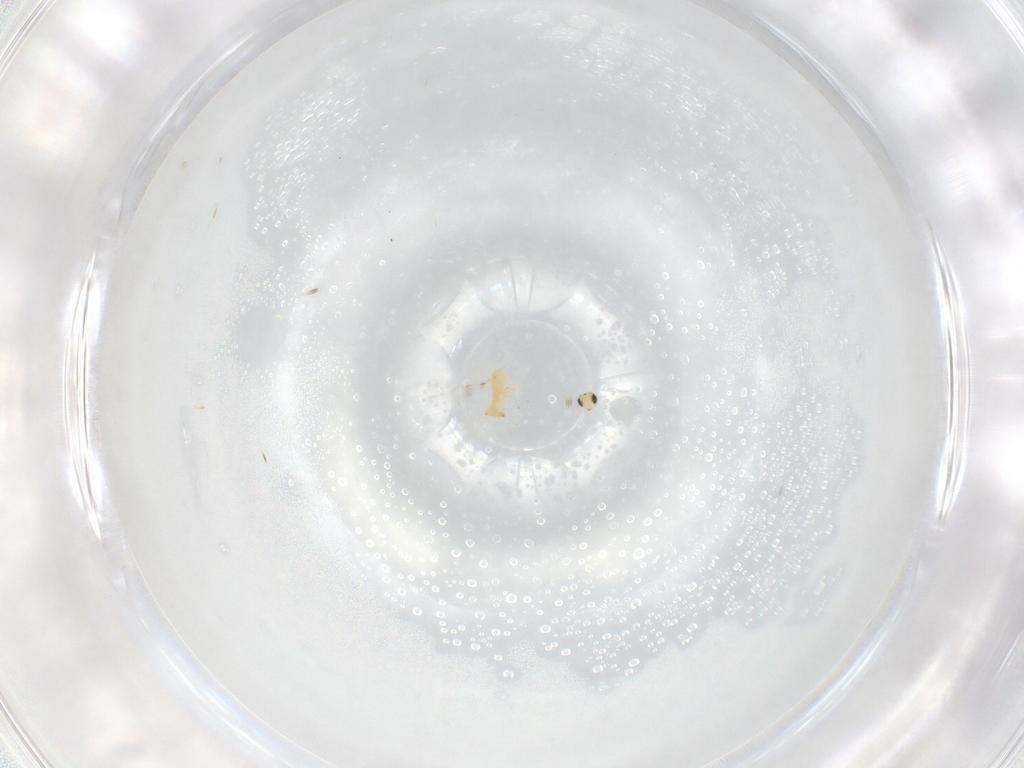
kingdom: Animalia
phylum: Arthropoda
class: Insecta
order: Hymenoptera
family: Trichogrammatidae
